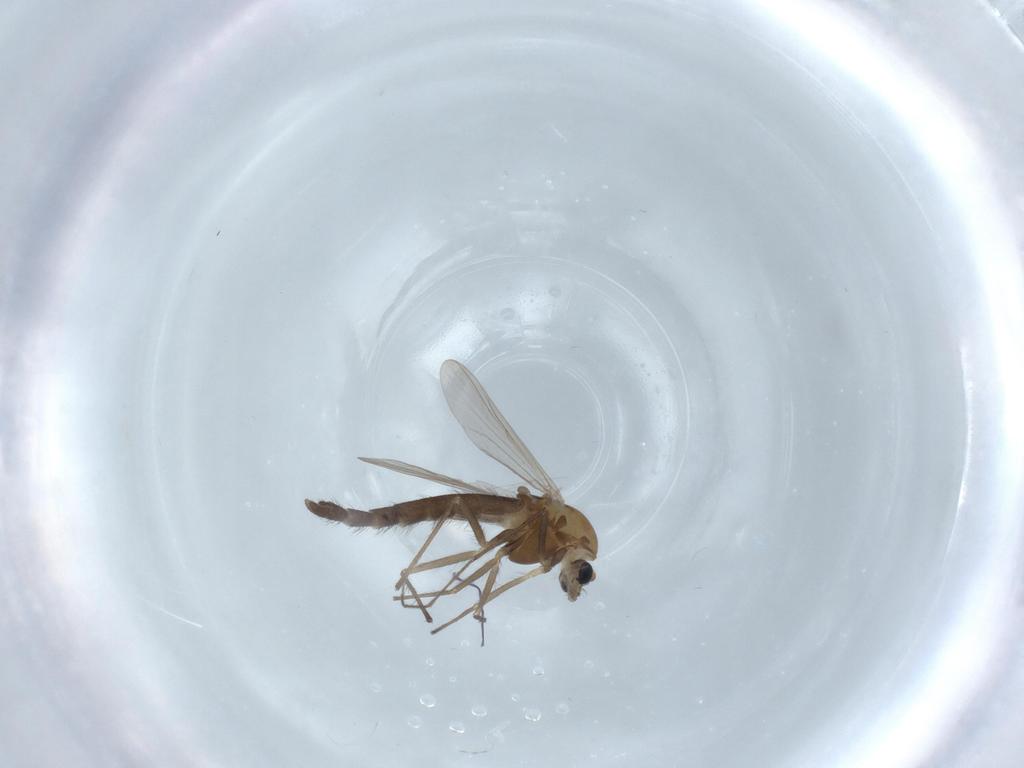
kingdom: Animalia
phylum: Arthropoda
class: Insecta
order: Diptera
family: Chironomidae
